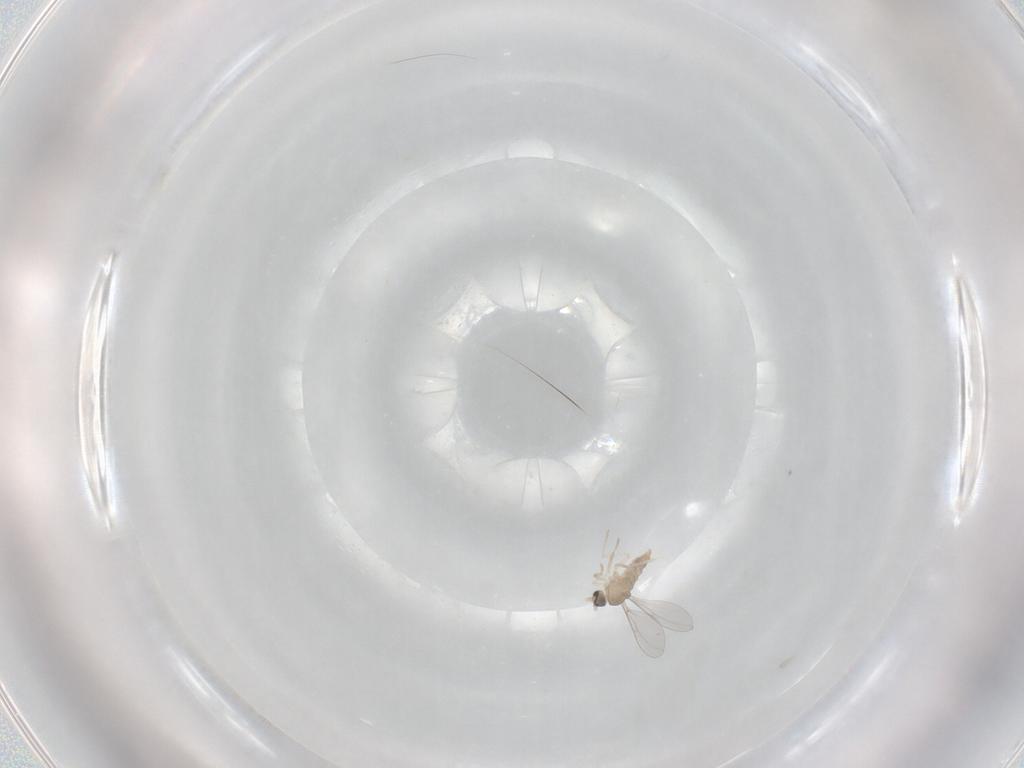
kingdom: Animalia
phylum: Arthropoda
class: Insecta
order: Diptera
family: Cecidomyiidae
